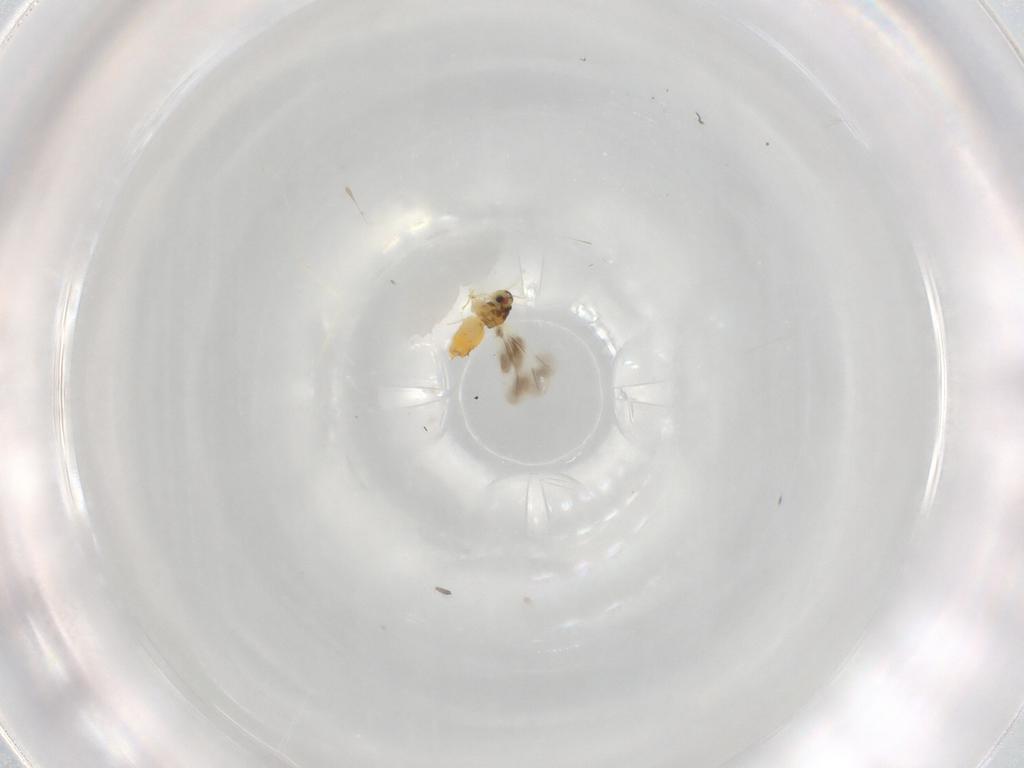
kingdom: Animalia
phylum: Arthropoda
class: Insecta
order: Hemiptera
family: Aleyrodidae
